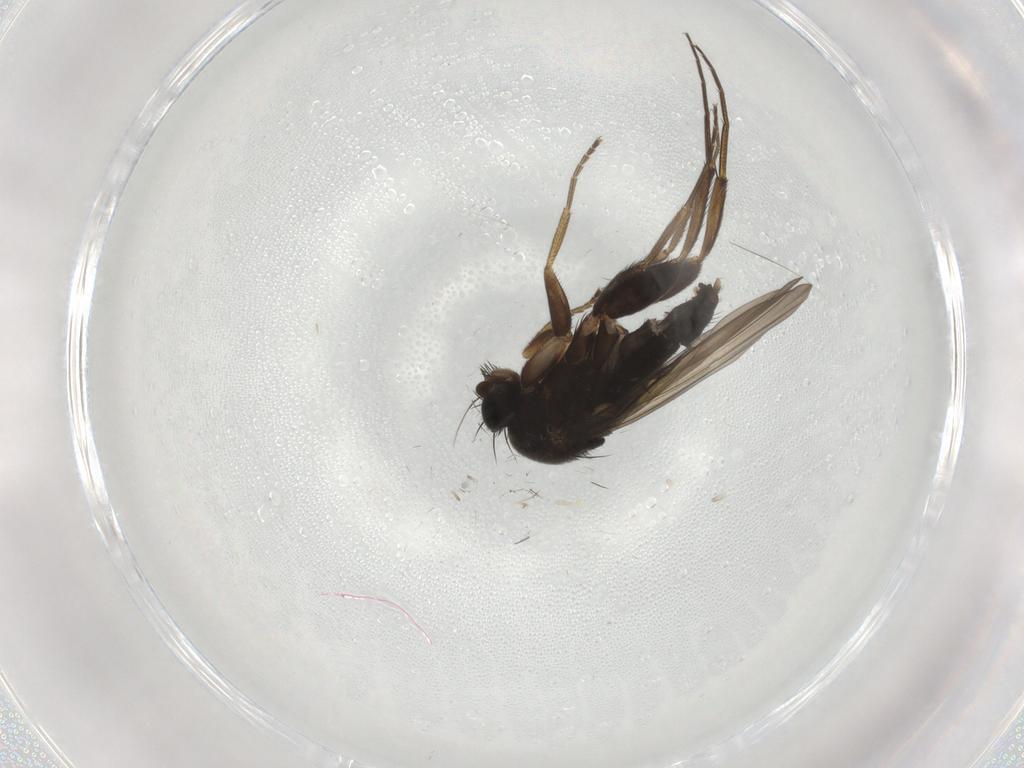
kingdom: Animalia
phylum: Arthropoda
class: Insecta
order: Diptera
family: Phoridae
